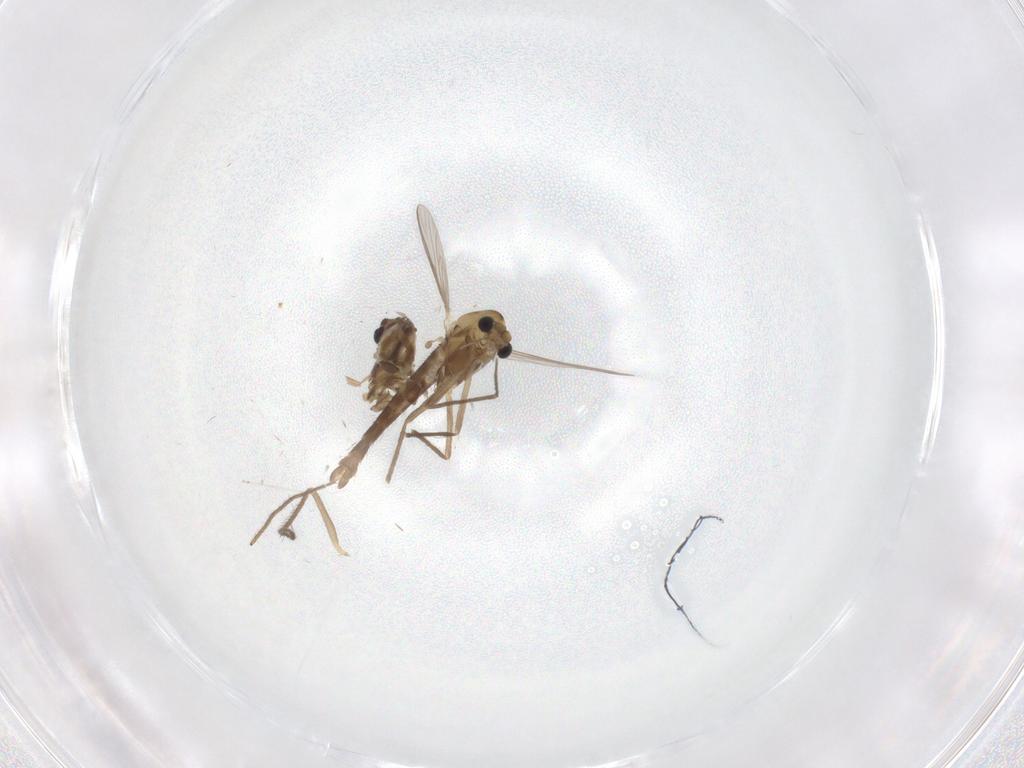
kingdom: Animalia
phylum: Arthropoda
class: Insecta
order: Diptera
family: Chironomidae
